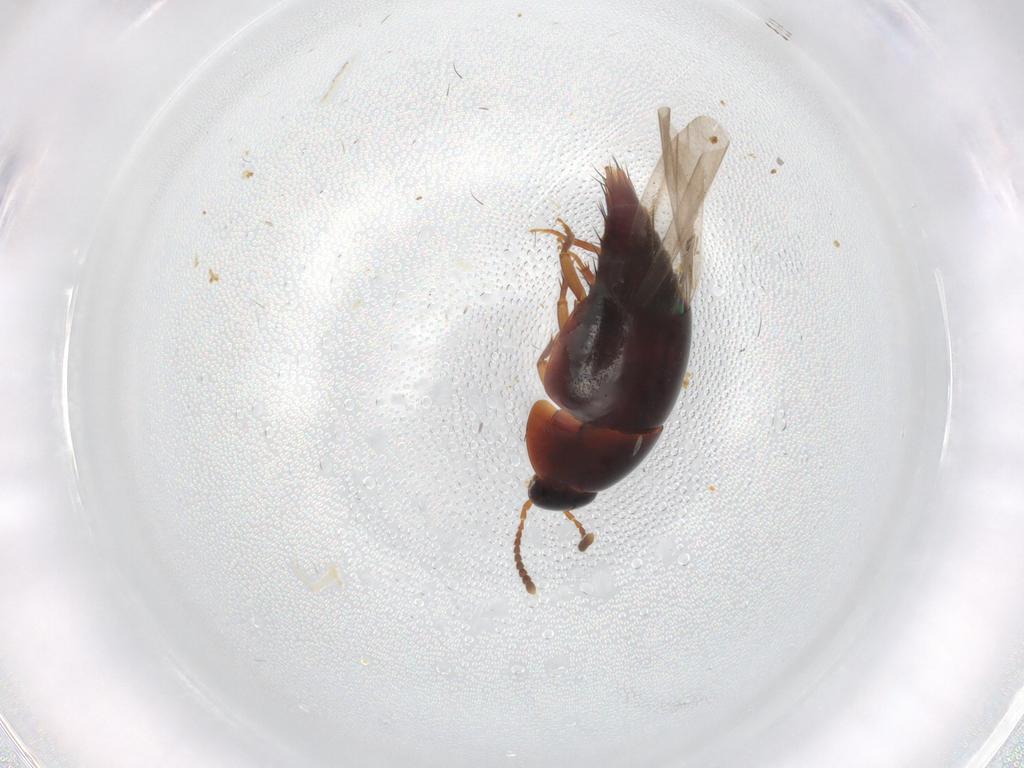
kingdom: Animalia
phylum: Arthropoda
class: Insecta
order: Coleoptera
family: Staphylinidae
